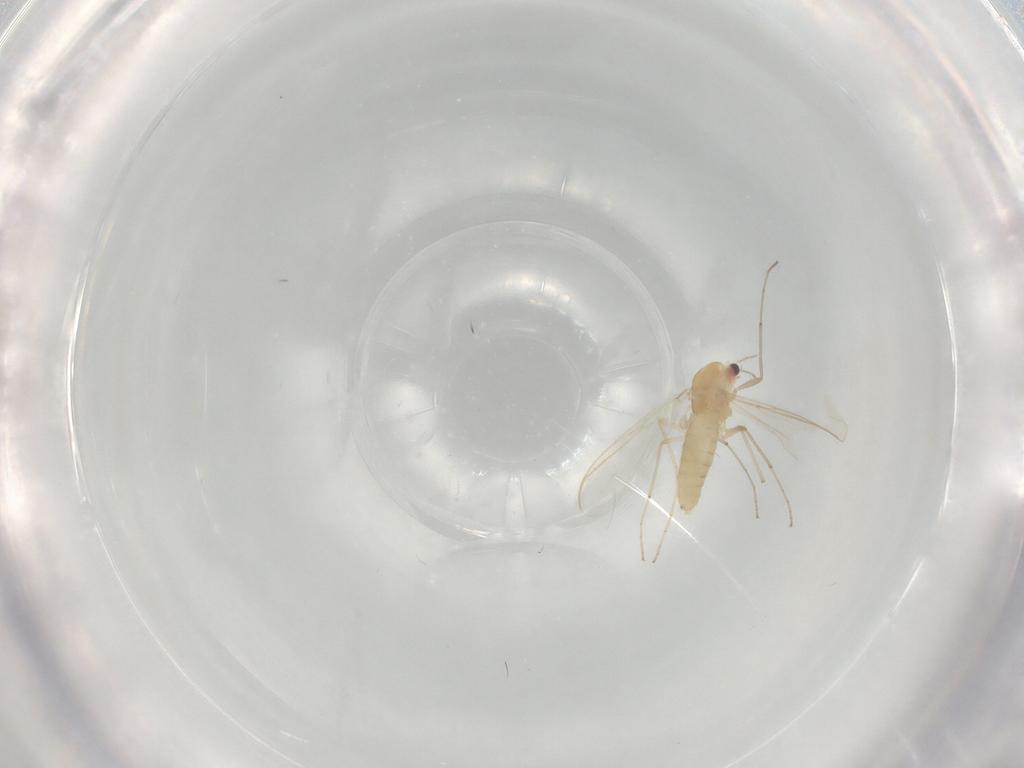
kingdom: Animalia
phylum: Arthropoda
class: Insecta
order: Diptera
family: Chironomidae
